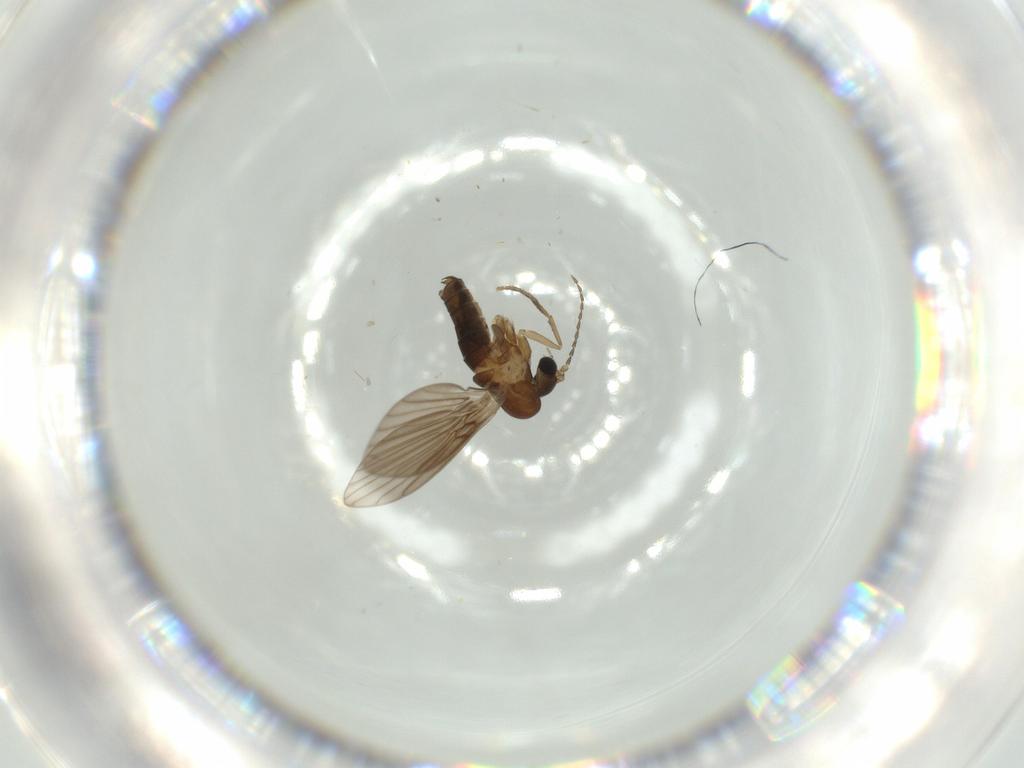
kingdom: Animalia
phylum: Arthropoda
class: Insecta
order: Diptera
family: Psychodidae
